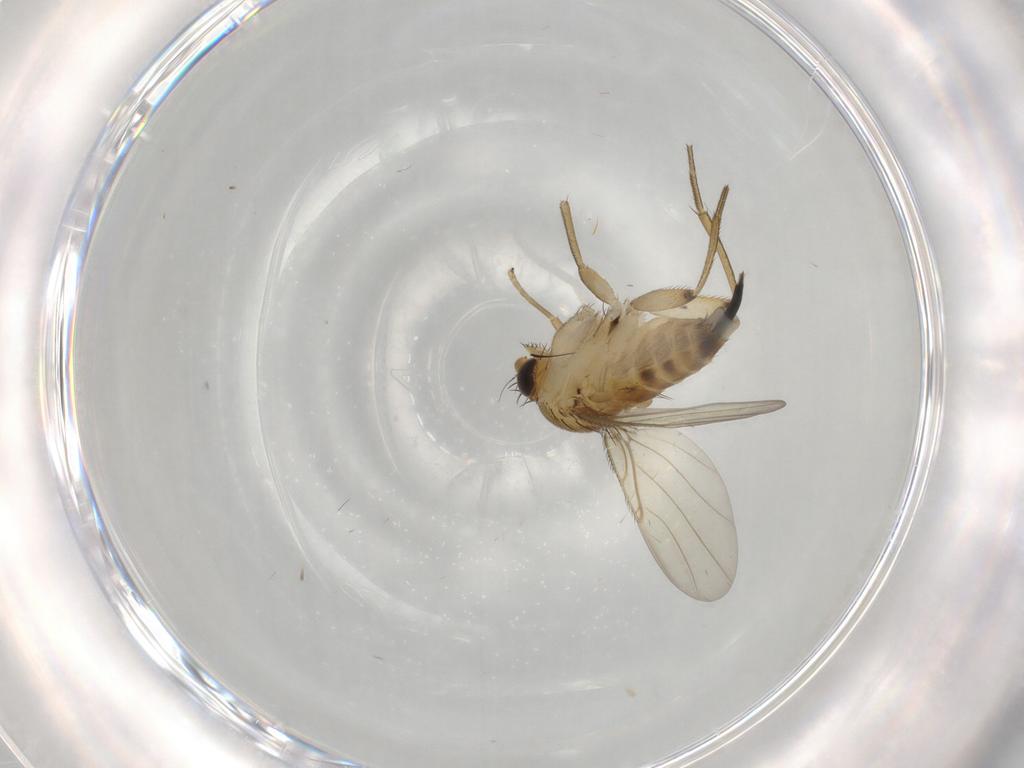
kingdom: Animalia
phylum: Arthropoda
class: Insecta
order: Diptera
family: Phoridae
